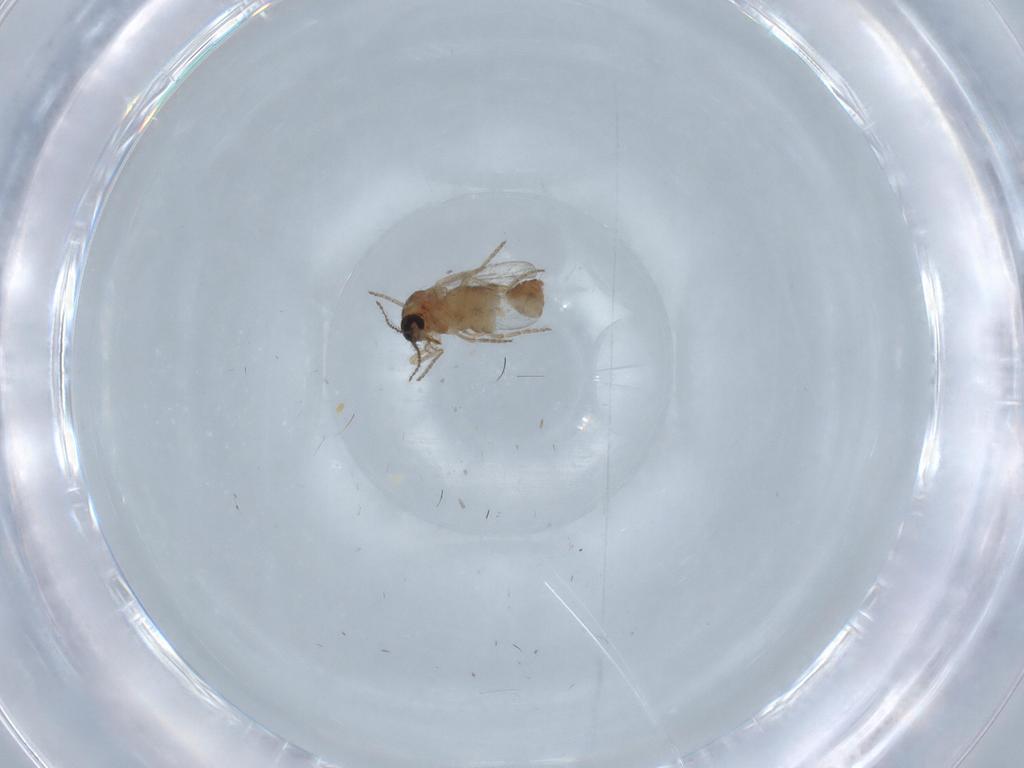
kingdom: Animalia
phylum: Arthropoda
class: Insecta
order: Diptera
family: Ceratopogonidae
